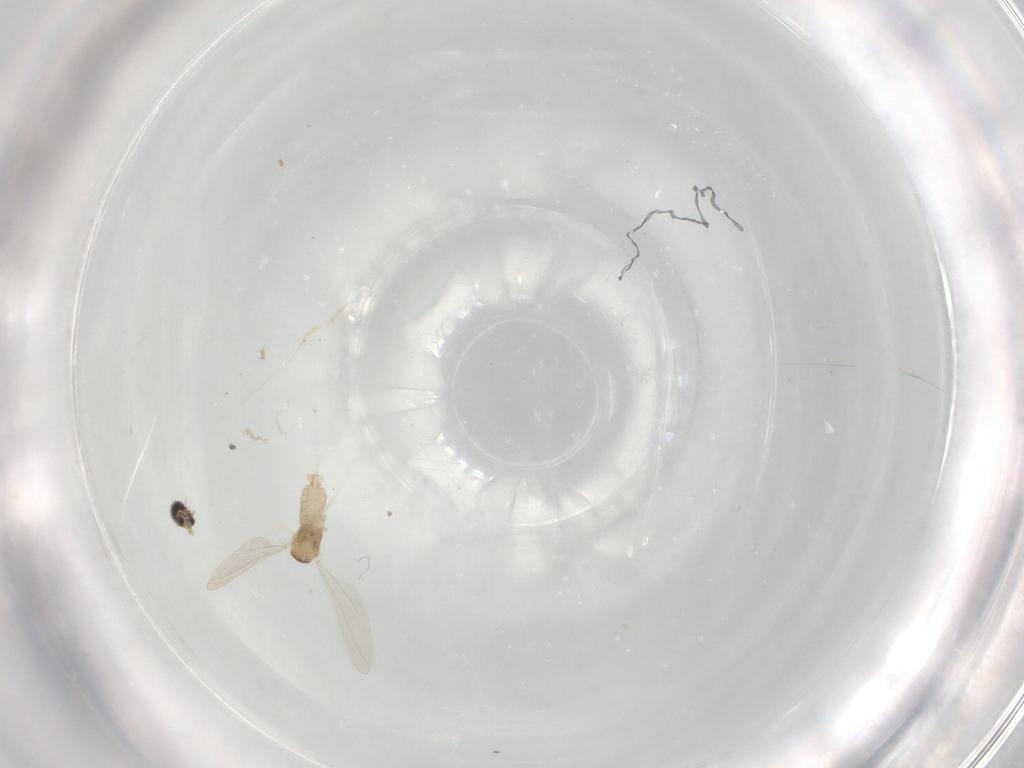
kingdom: Animalia
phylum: Arthropoda
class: Insecta
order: Diptera
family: Cecidomyiidae
